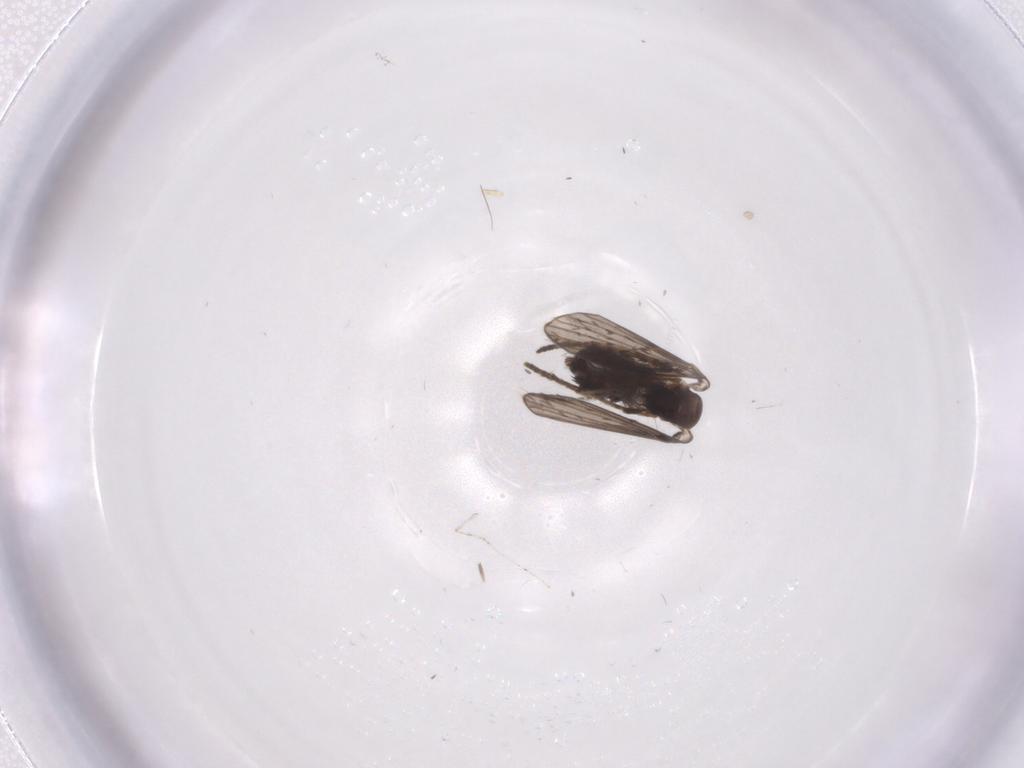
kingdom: Animalia
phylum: Arthropoda
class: Insecta
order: Diptera
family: Cecidomyiidae
